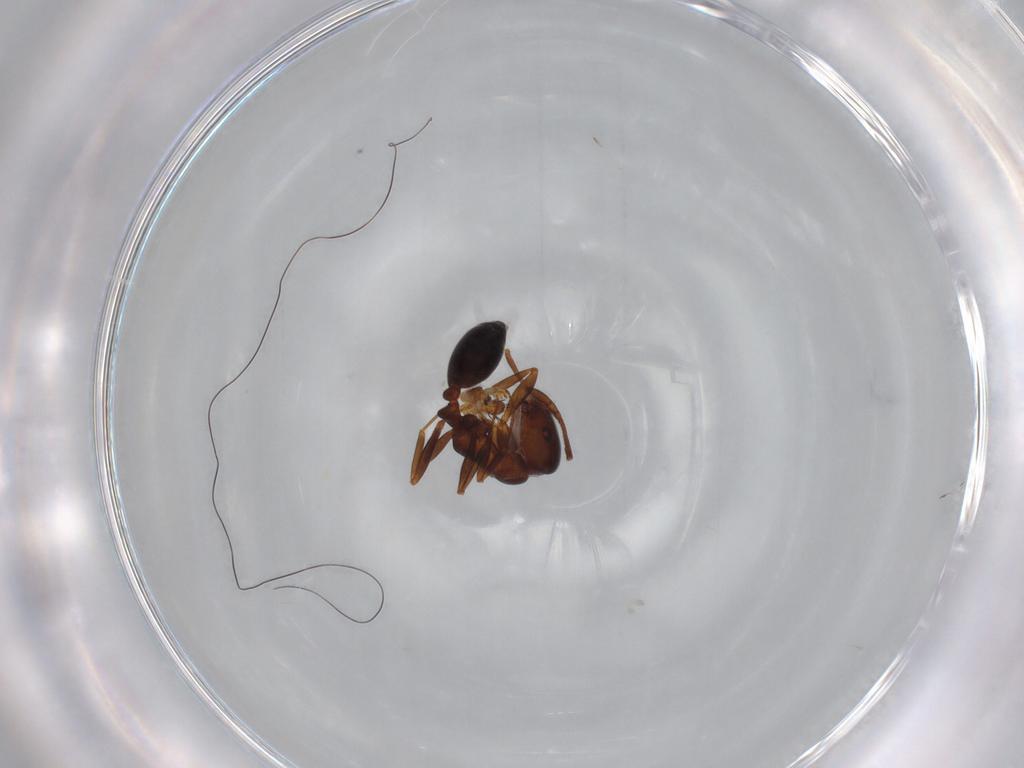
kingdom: Animalia
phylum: Arthropoda
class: Insecta
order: Hymenoptera
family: Formicidae
